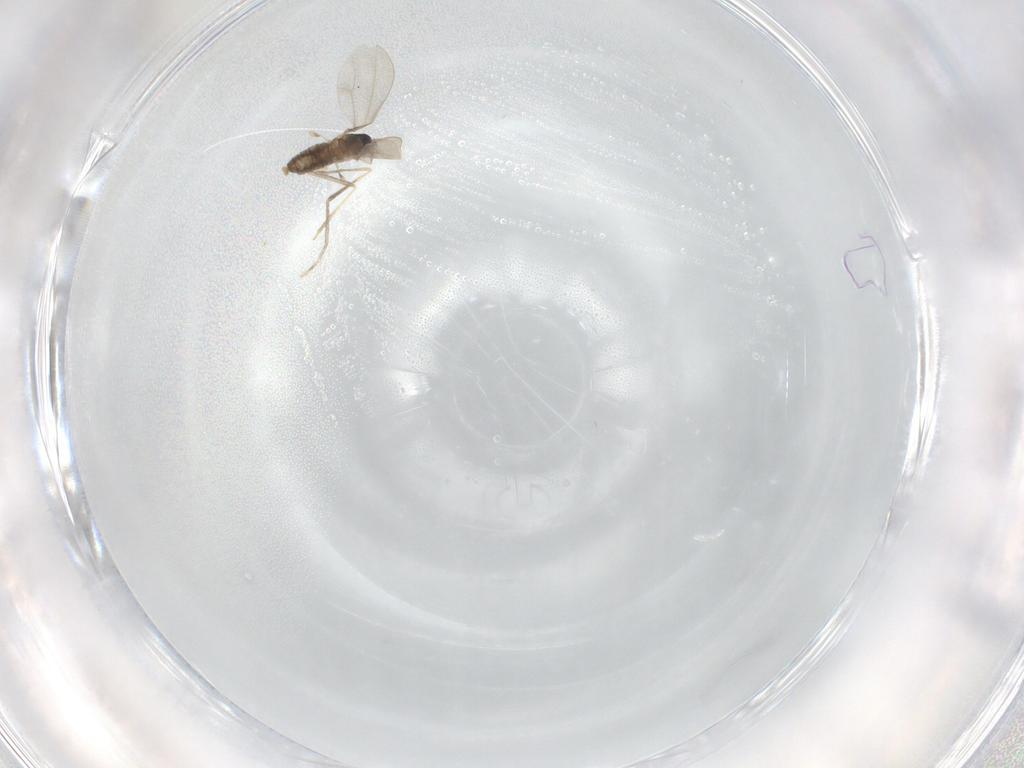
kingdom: Animalia
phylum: Arthropoda
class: Insecta
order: Diptera
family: Cecidomyiidae
